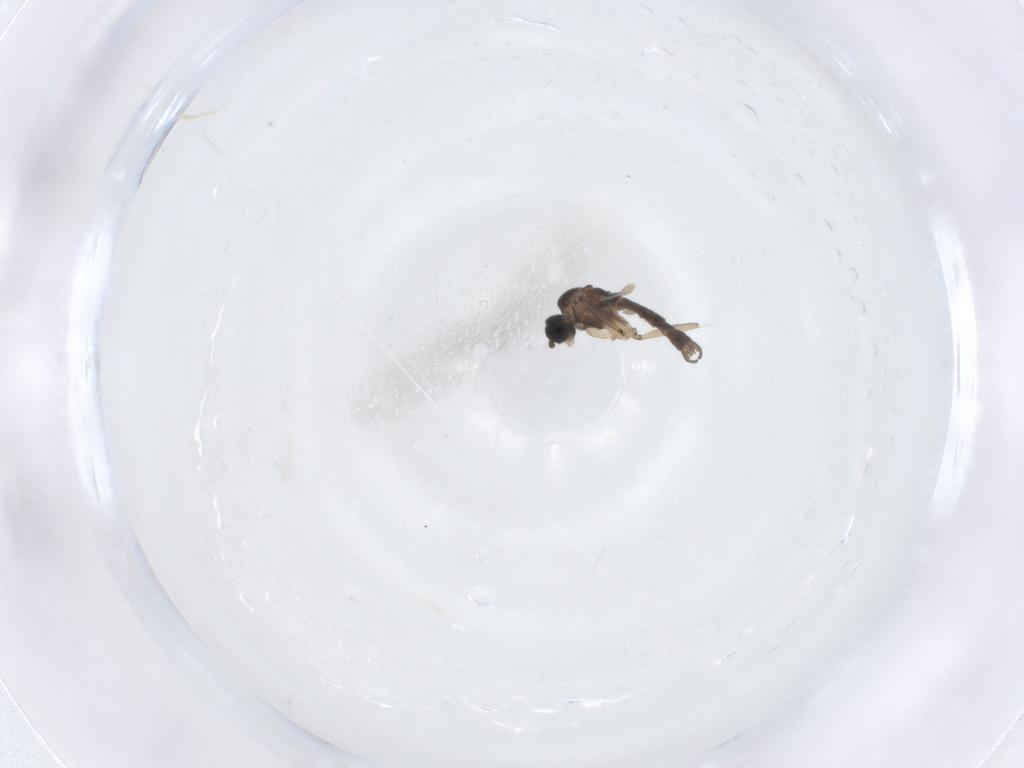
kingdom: Animalia
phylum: Arthropoda
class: Insecta
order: Diptera
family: Sciaridae
